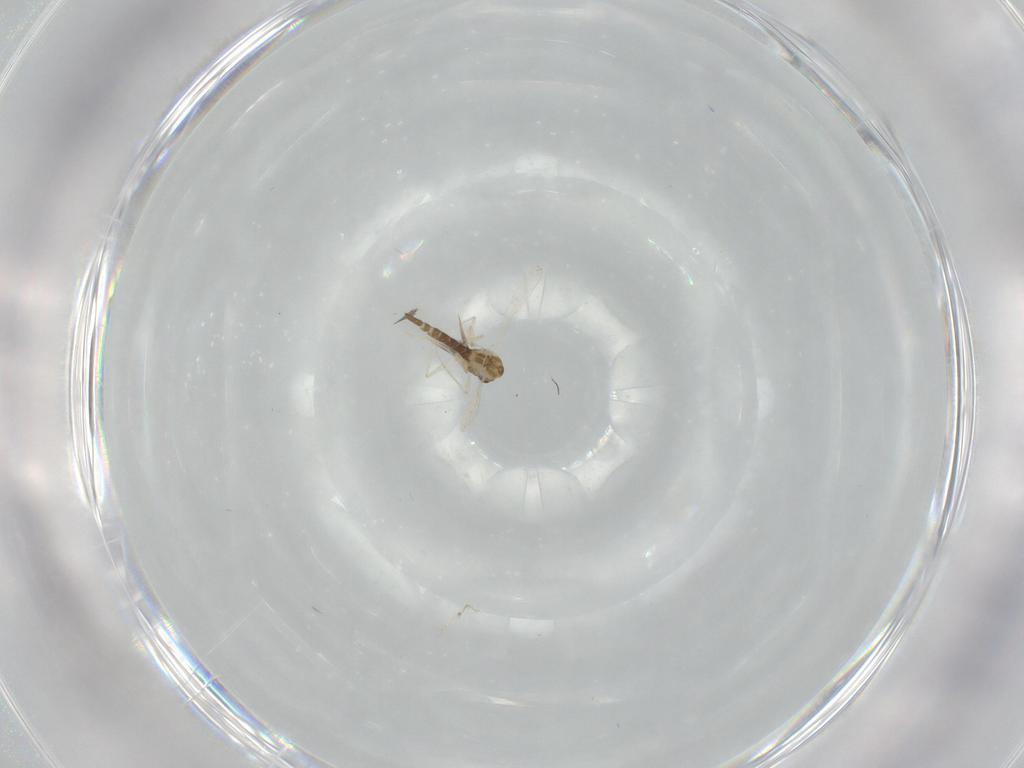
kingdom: Animalia
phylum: Arthropoda
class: Insecta
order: Diptera
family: Chironomidae
